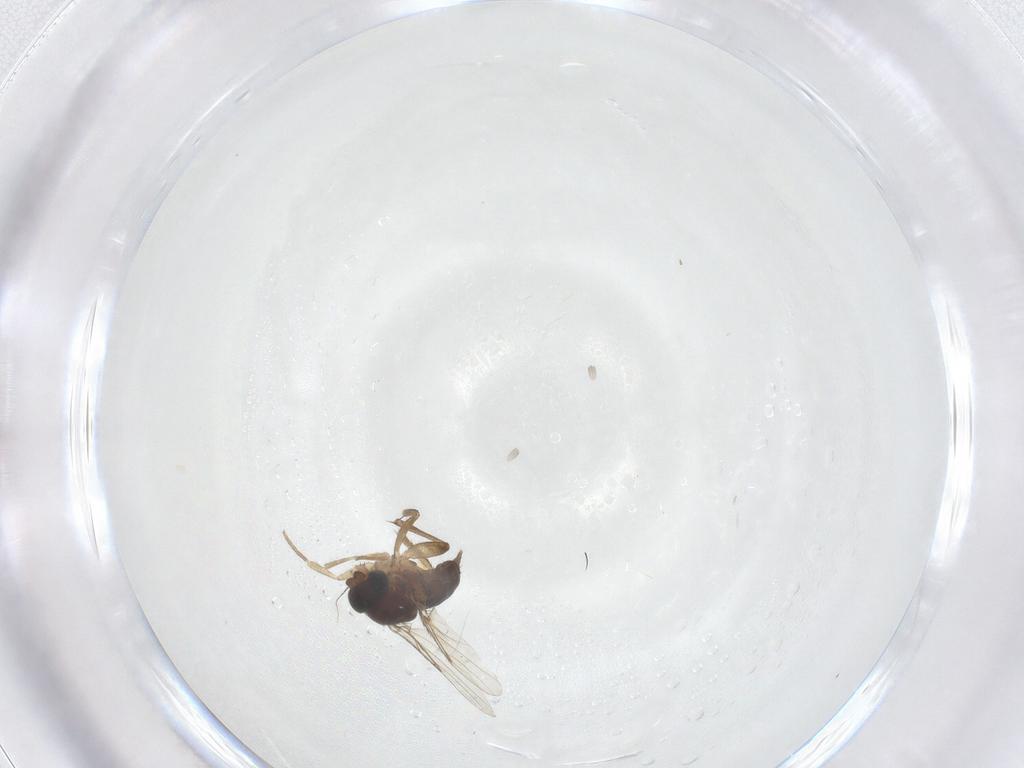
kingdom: Animalia
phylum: Arthropoda
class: Insecta
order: Diptera
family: Phoridae
